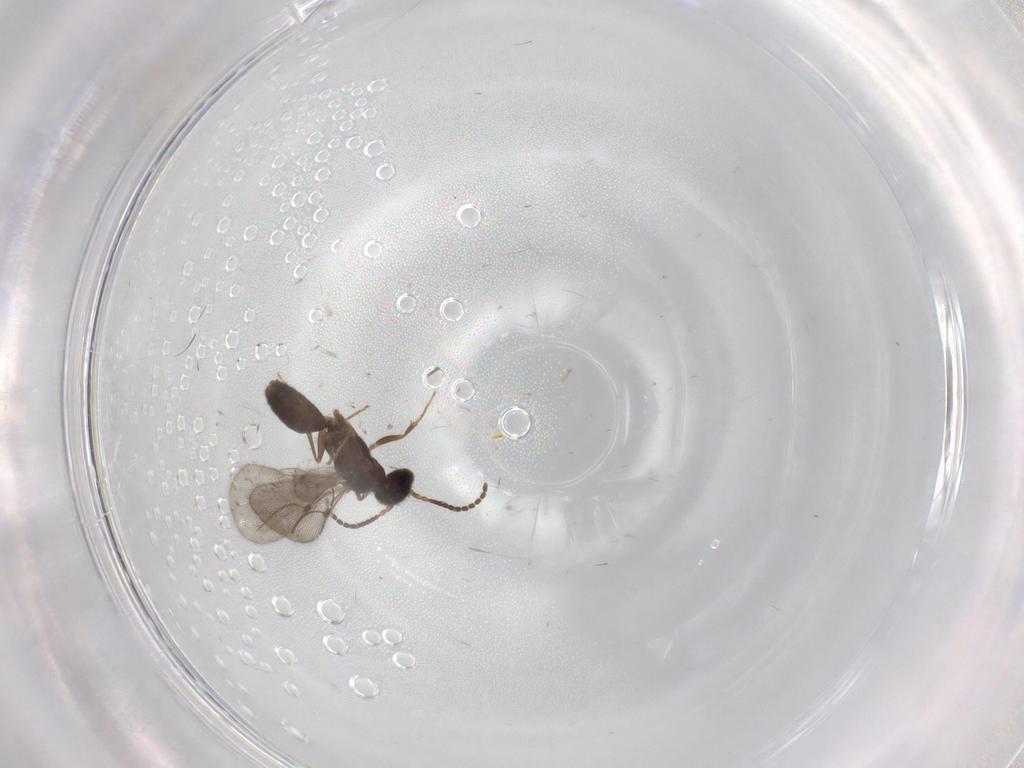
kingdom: Animalia
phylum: Arthropoda
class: Insecta
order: Hymenoptera
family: Bethylidae
